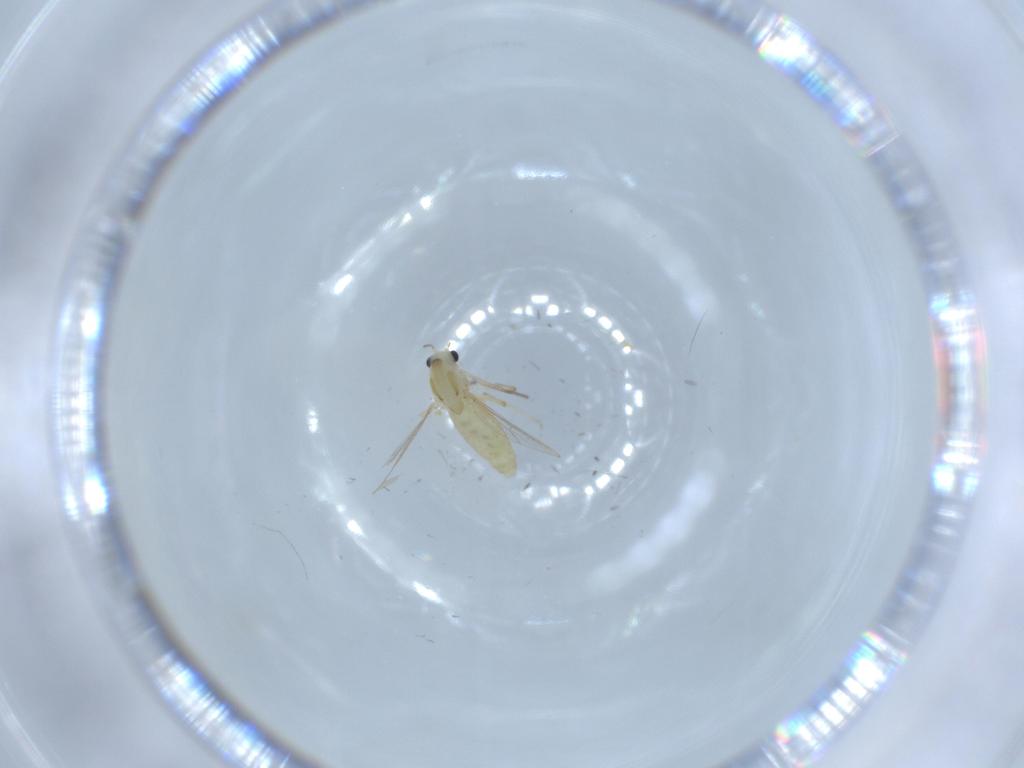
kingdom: Animalia
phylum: Arthropoda
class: Insecta
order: Diptera
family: Chironomidae
